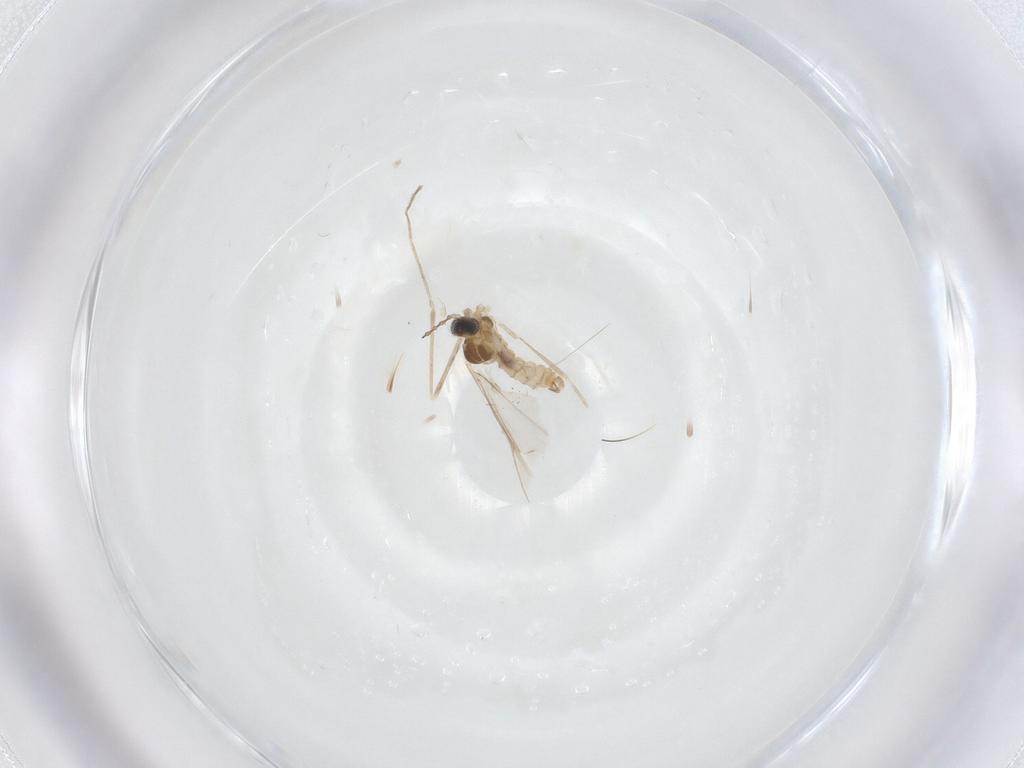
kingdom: Animalia
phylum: Arthropoda
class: Insecta
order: Diptera
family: Cecidomyiidae
